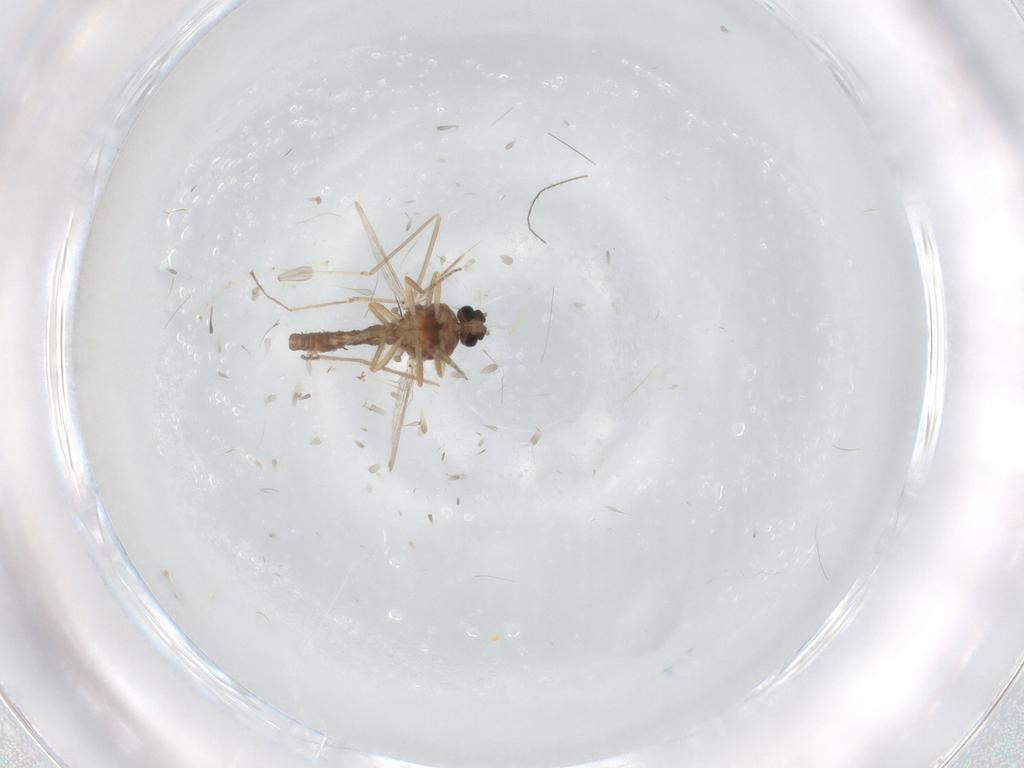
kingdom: Animalia
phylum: Arthropoda
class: Insecta
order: Diptera
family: Ceratopogonidae
